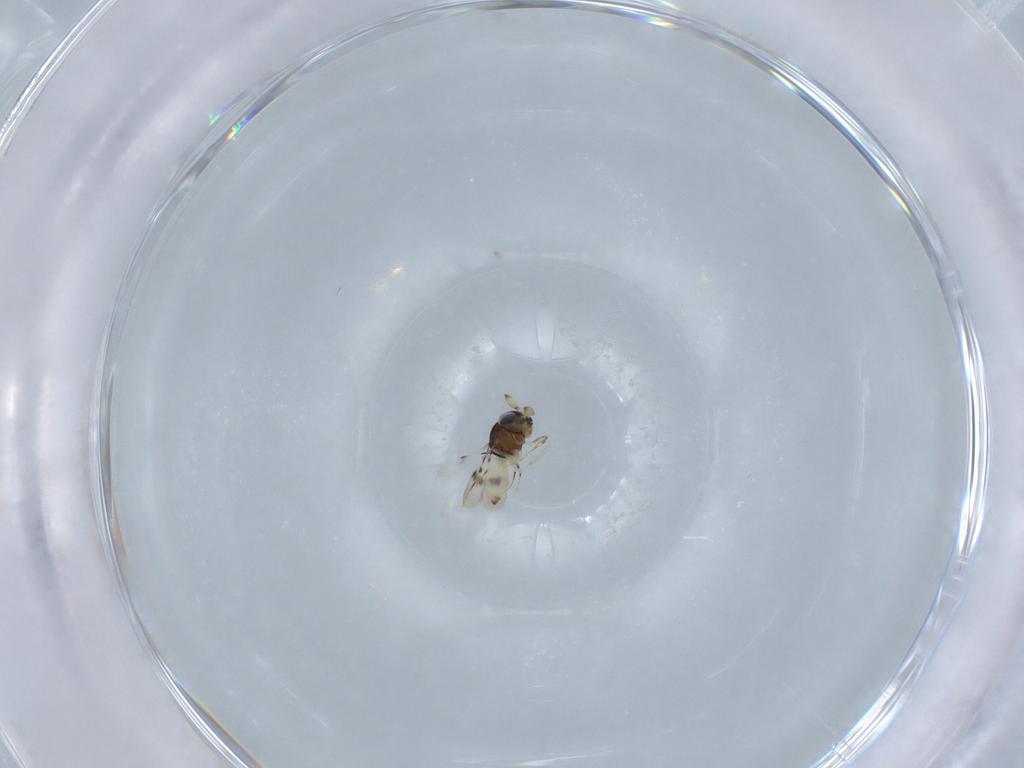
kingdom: Animalia
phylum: Arthropoda
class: Insecta
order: Hymenoptera
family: Scelionidae
